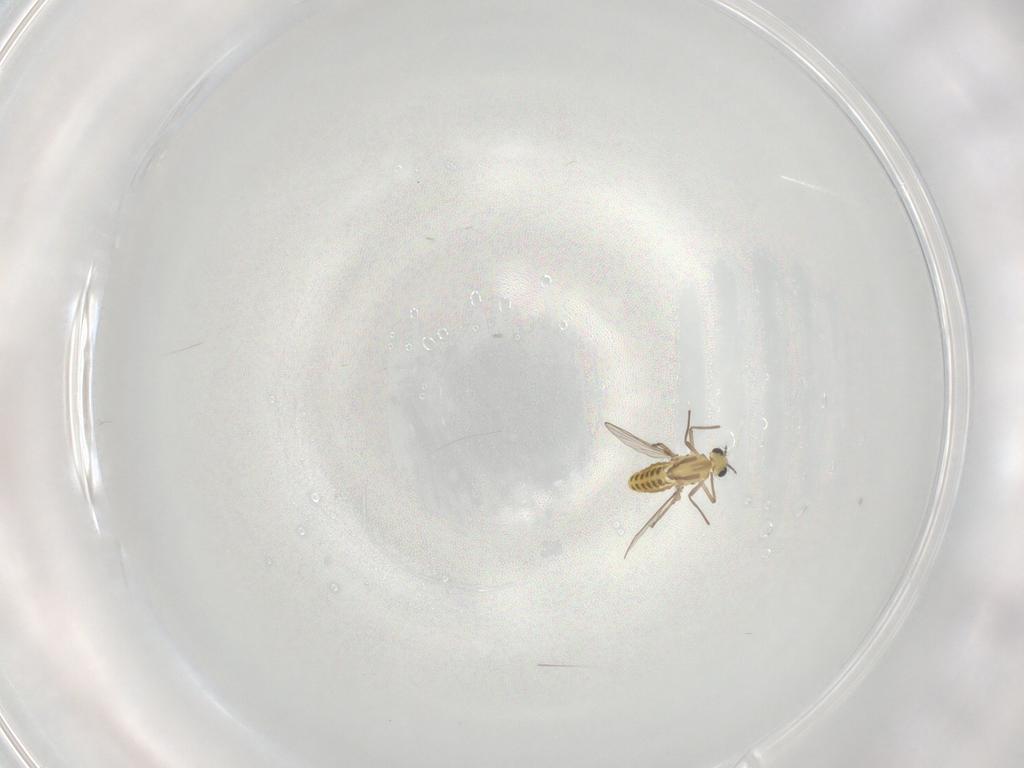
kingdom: Animalia
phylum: Arthropoda
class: Insecta
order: Diptera
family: Chironomidae
